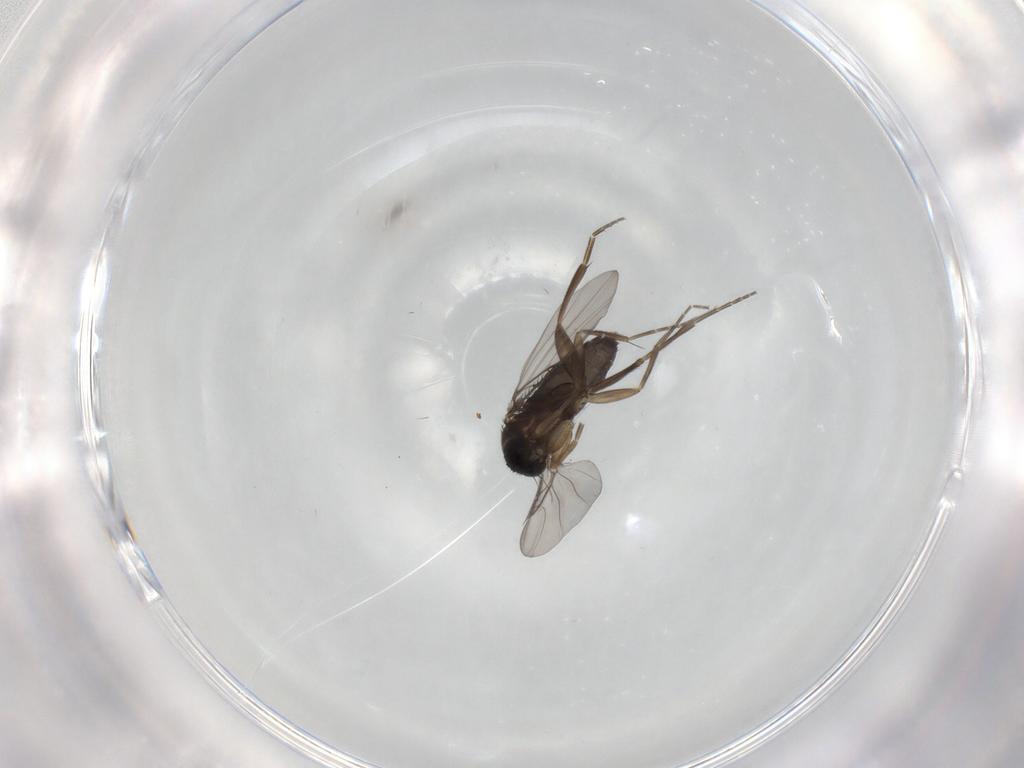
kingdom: Animalia
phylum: Arthropoda
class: Insecta
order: Diptera
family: Phoridae
